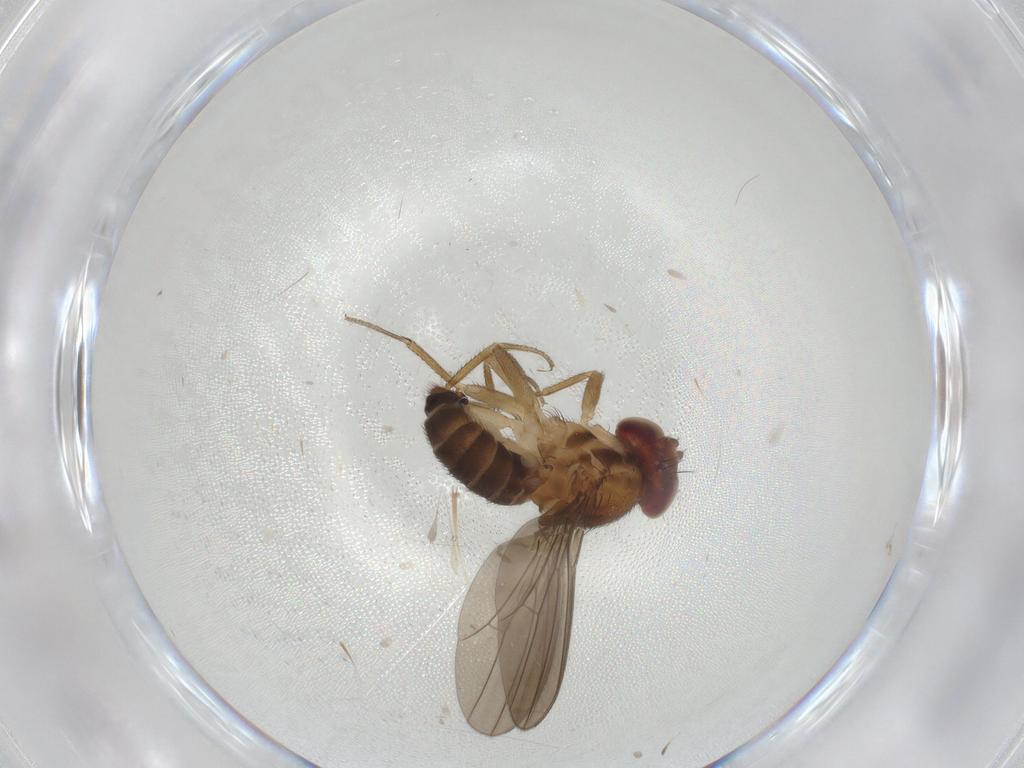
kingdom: Animalia
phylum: Arthropoda
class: Insecta
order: Diptera
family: Drosophilidae
